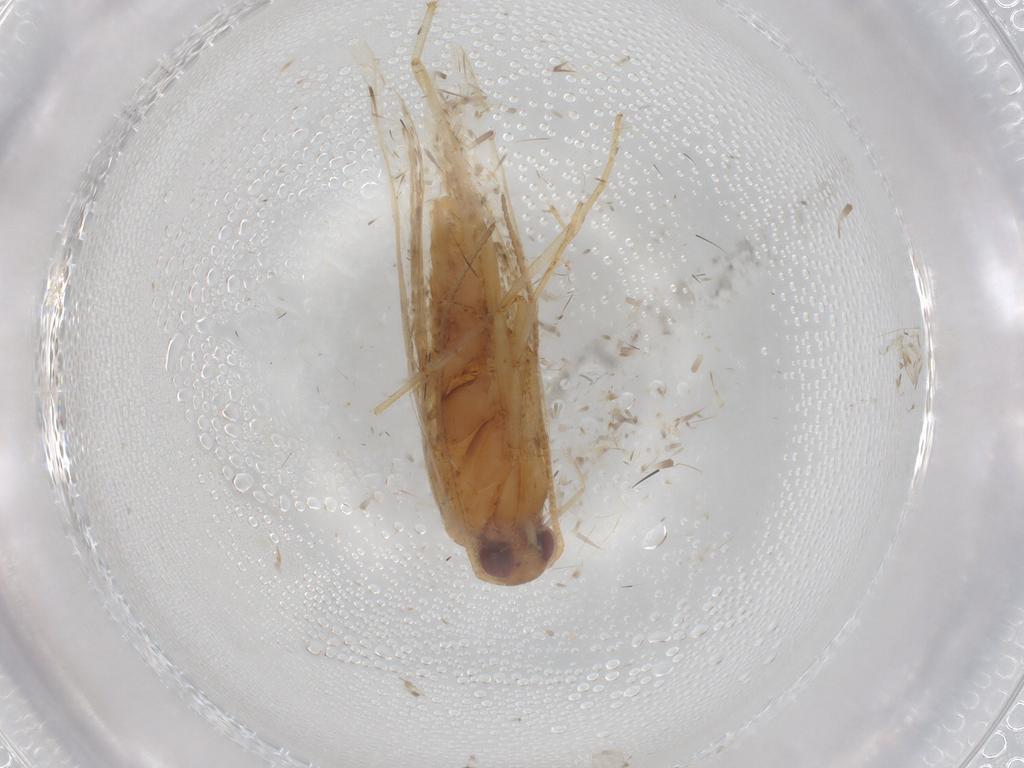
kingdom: Animalia
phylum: Arthropoda
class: Insecta
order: Lepidoptera
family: Gelechiidae
